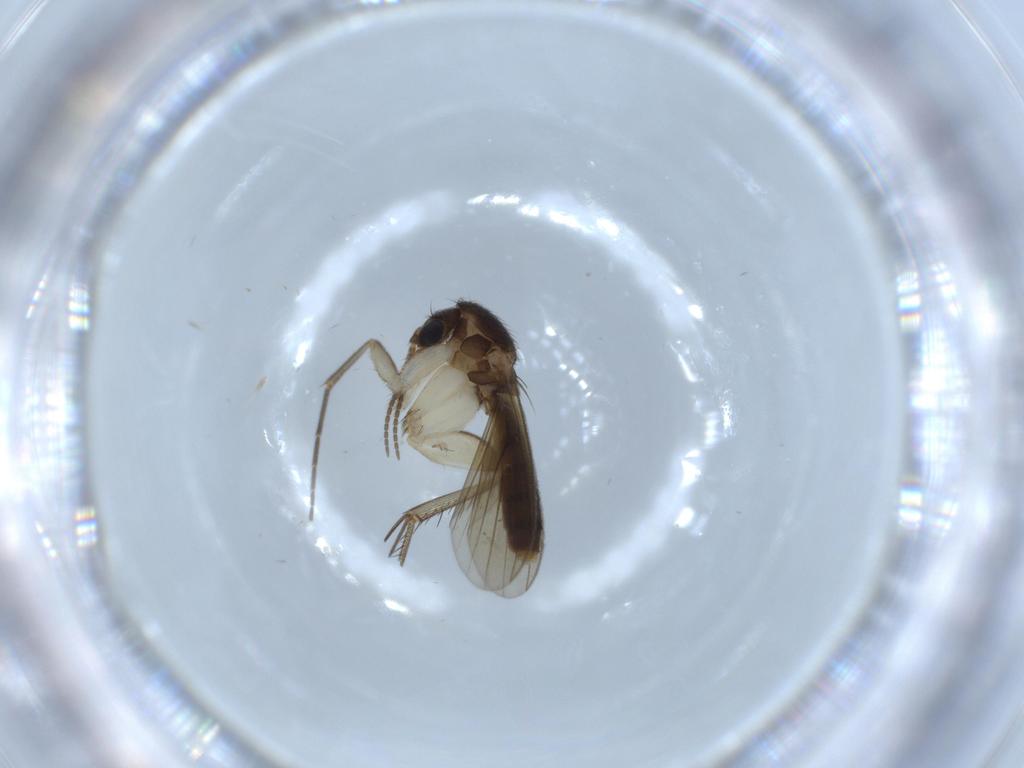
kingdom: Animalia
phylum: Arthropoda
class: Insecta
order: Diptera
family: Mycetophilidae
